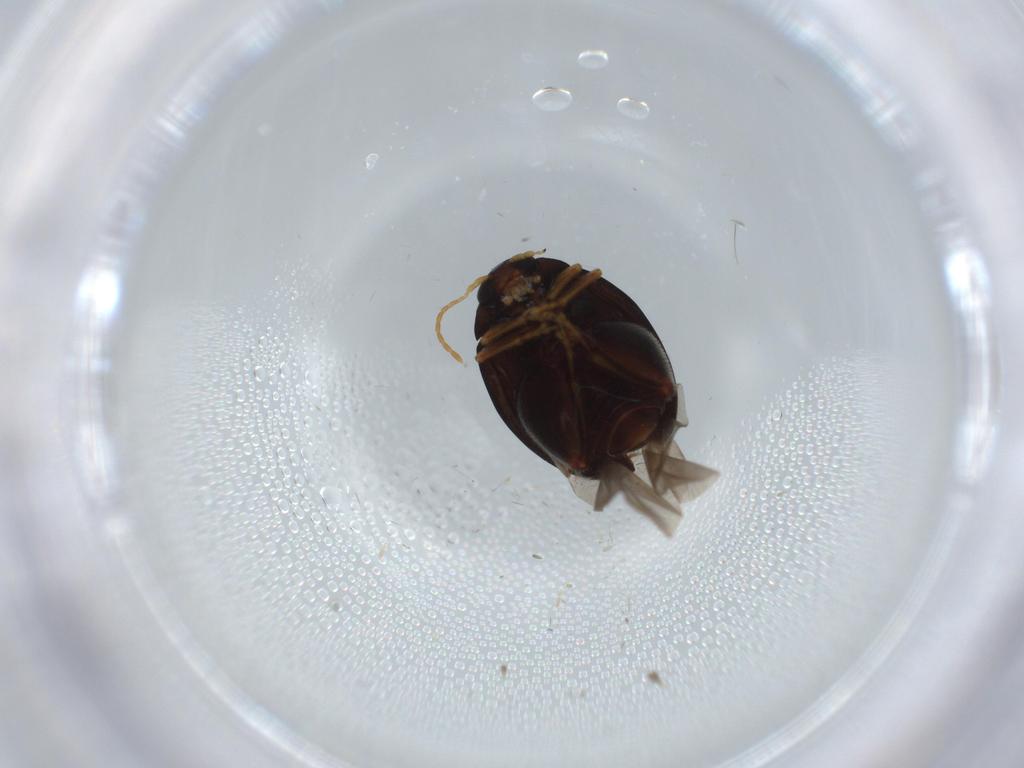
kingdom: Animalia
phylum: Arthropoda
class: Insecta
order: Coleoptera
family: Chrysomelidae
